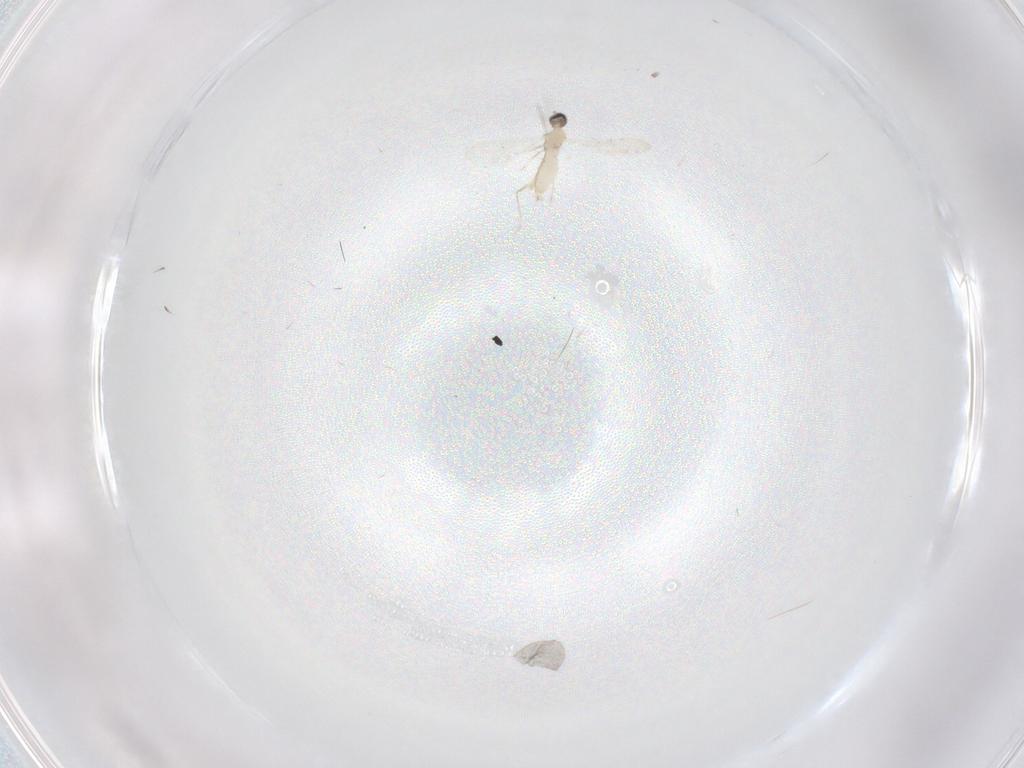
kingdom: Animalia
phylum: Arthropoda
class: Insecta
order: Diptera
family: Cecidomyiidae
